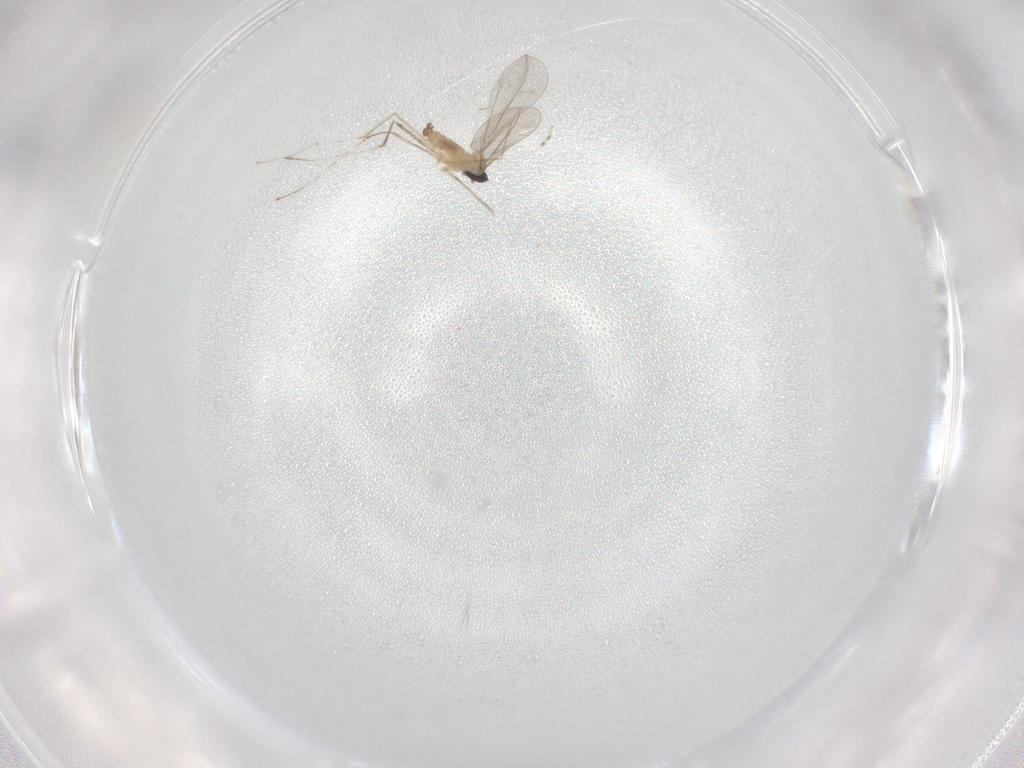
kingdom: Animalia
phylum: Arthropoda
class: Insecta
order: Diptera
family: Cecidomyiidae
